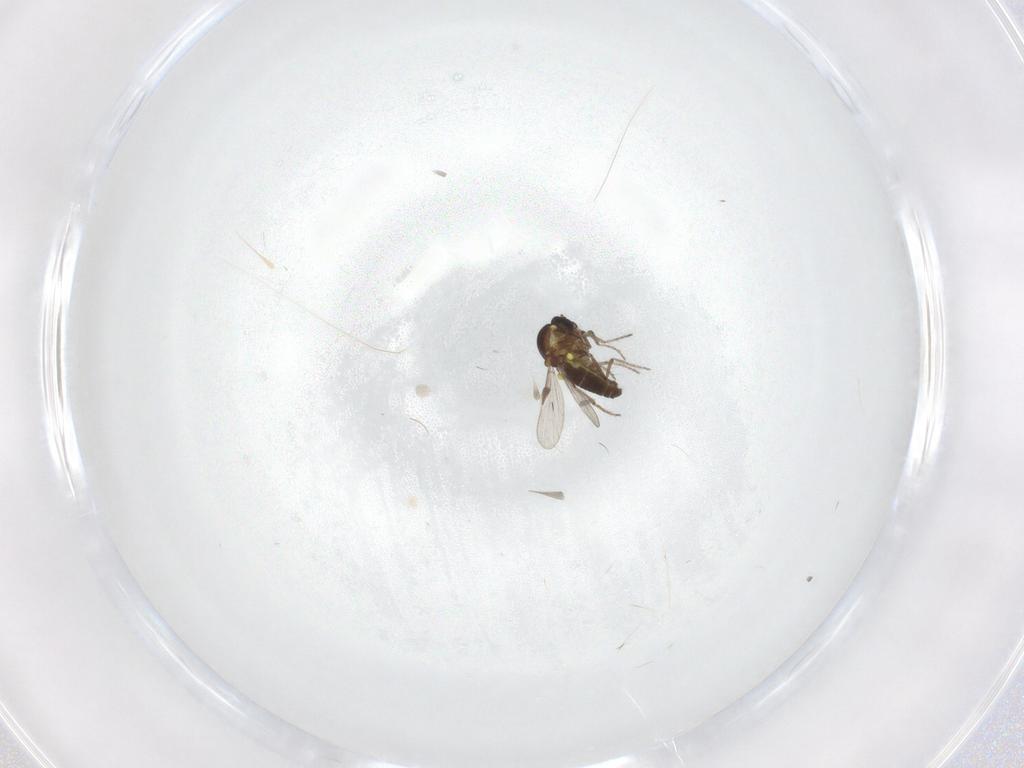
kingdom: Animalia
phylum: Arthropoda
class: Insecta
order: Diptera
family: Ceratopogonidae
